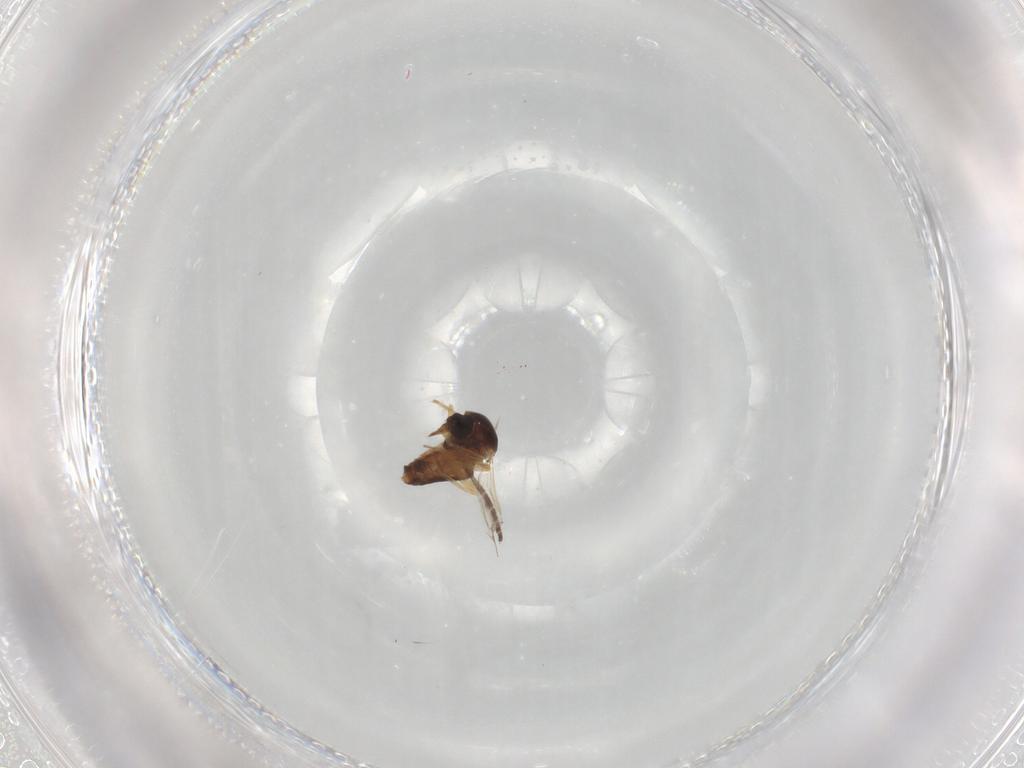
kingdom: Animalia
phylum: Arthropoda
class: Insecta
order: Diptera
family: Ceratopogonidae
